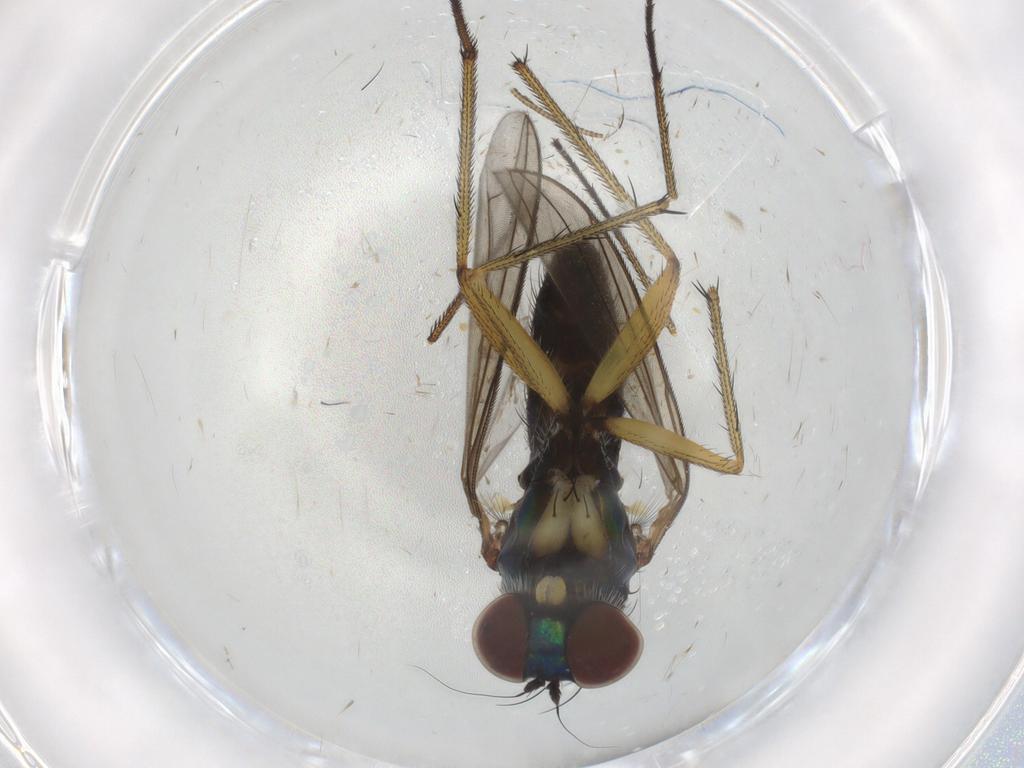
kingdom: Animalia
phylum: Arthropoda
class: Insecta
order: Diptera
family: Dolichopodidae
